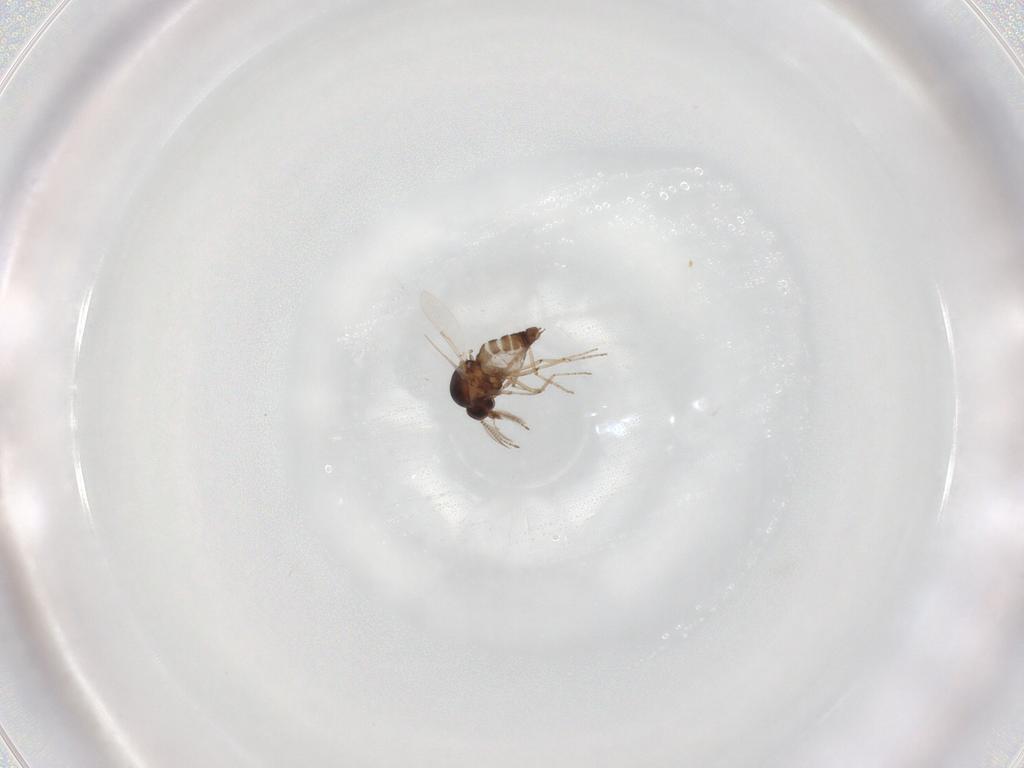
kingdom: Animalia
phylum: Arthropoda
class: Insecta
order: Diptera
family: Ceratopogonidae
